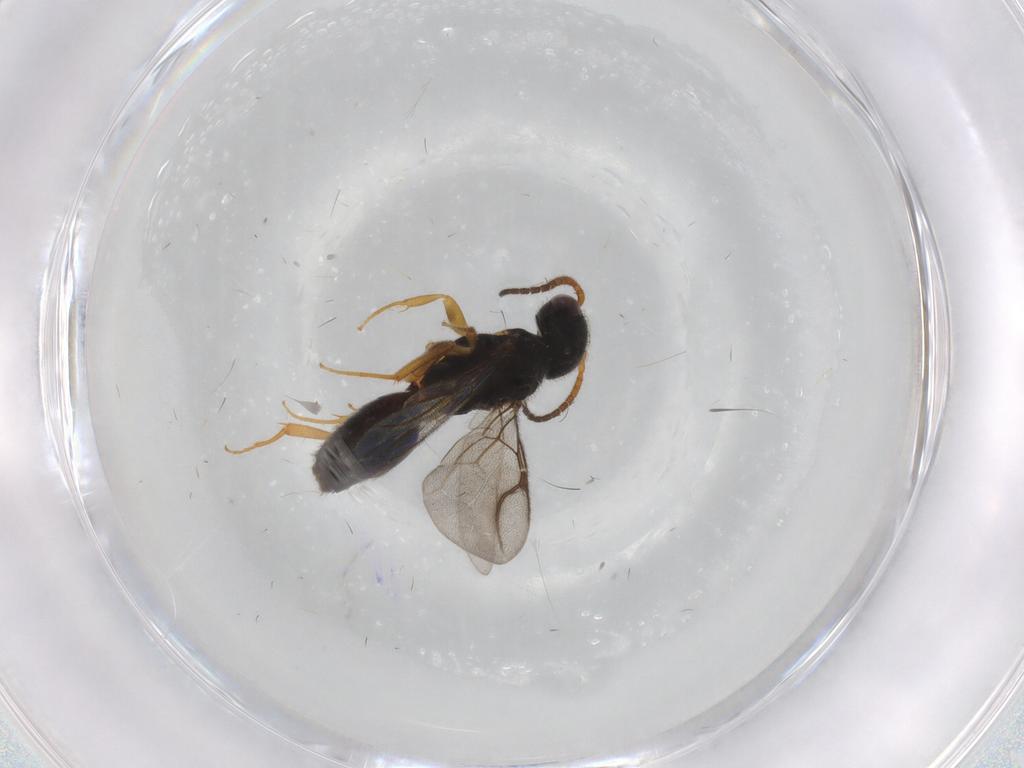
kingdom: Animalia
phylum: Arthropoda
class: Insecta
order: Hymenoptera
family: Bethylidae
